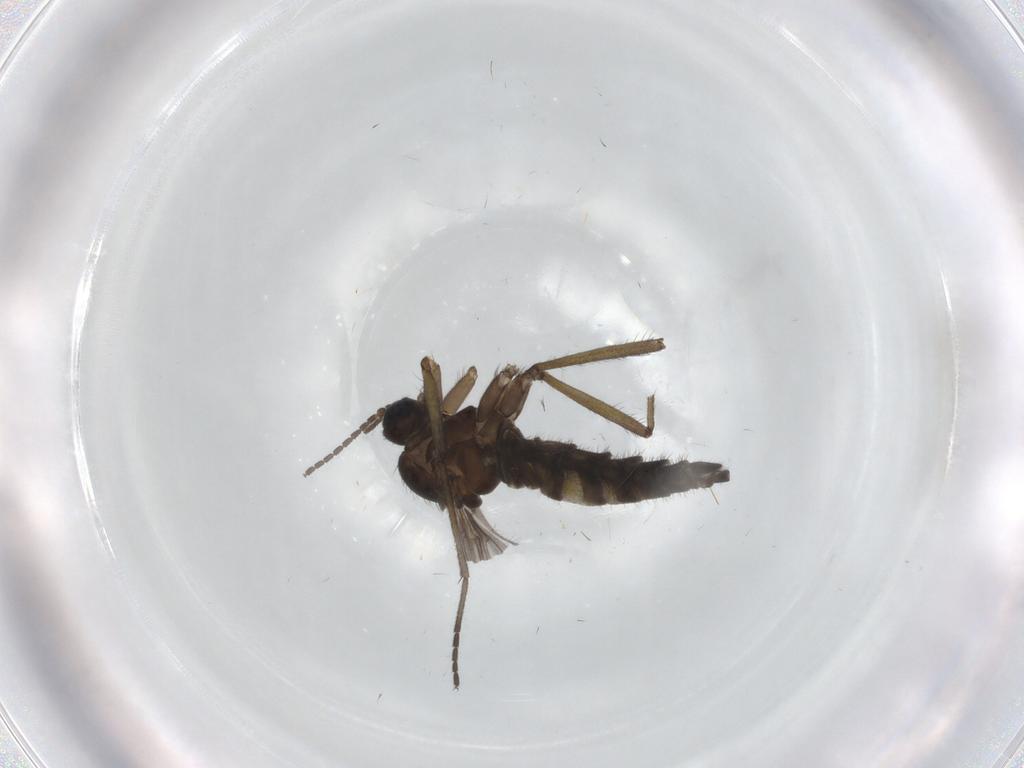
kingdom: Animalia
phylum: Arthropoda
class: Insecta
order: Diptera
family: Sciaridae
